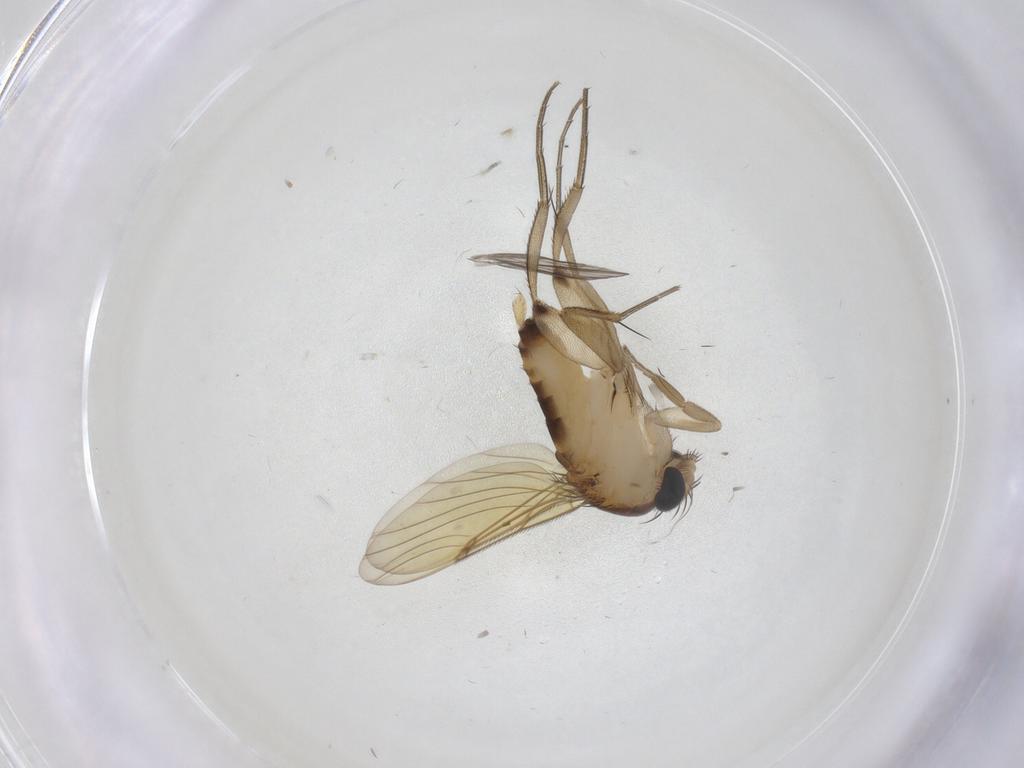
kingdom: Animalia
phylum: Arthropoda
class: Insecta
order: Diptera
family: Phoridae
